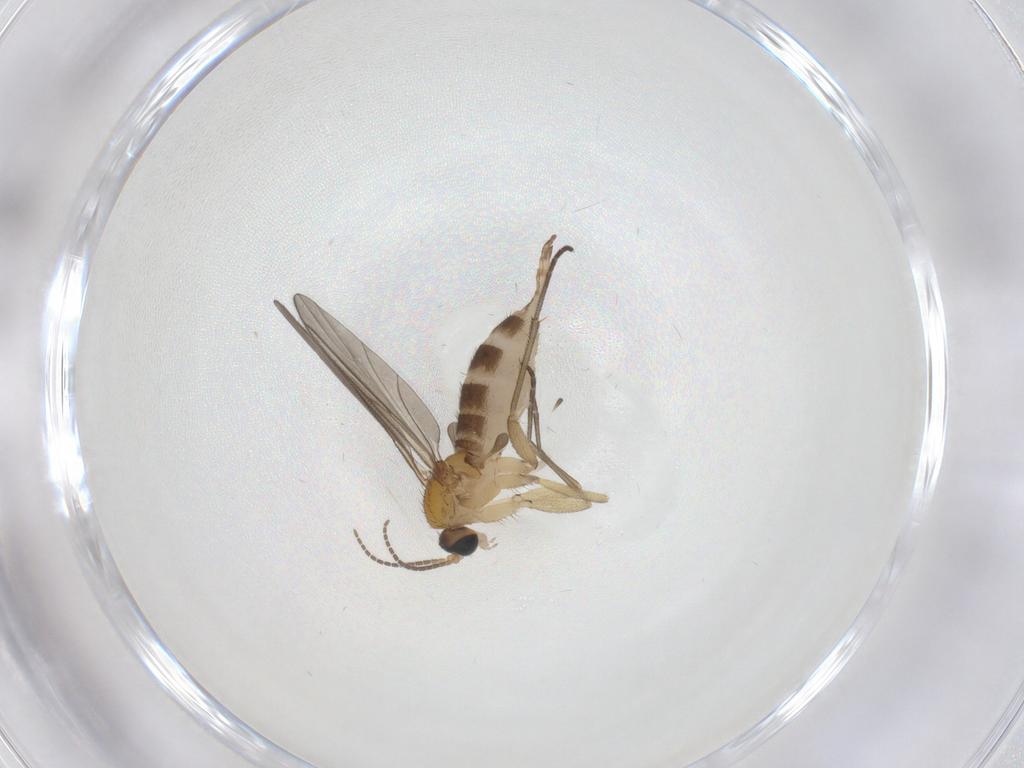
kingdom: Animalia
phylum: Arthropoda
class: Insecta
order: Diptera
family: Sciaridae
